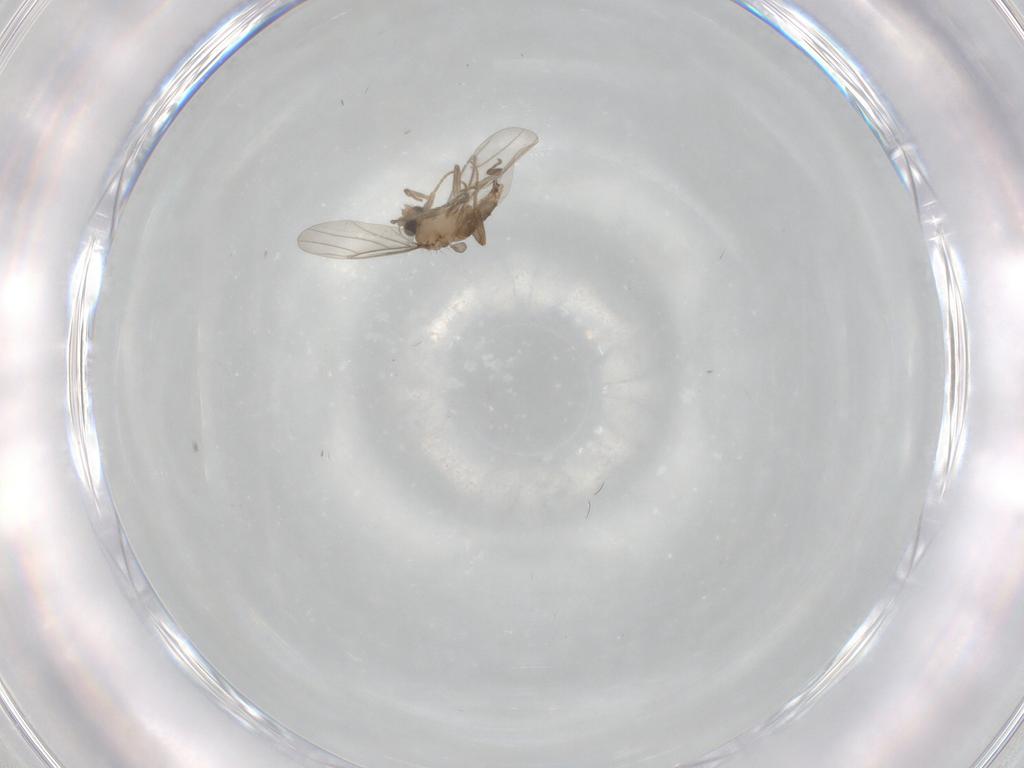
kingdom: Animalia
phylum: Arthropoda
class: Insecta
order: Diptera
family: Cecidomyiidae
